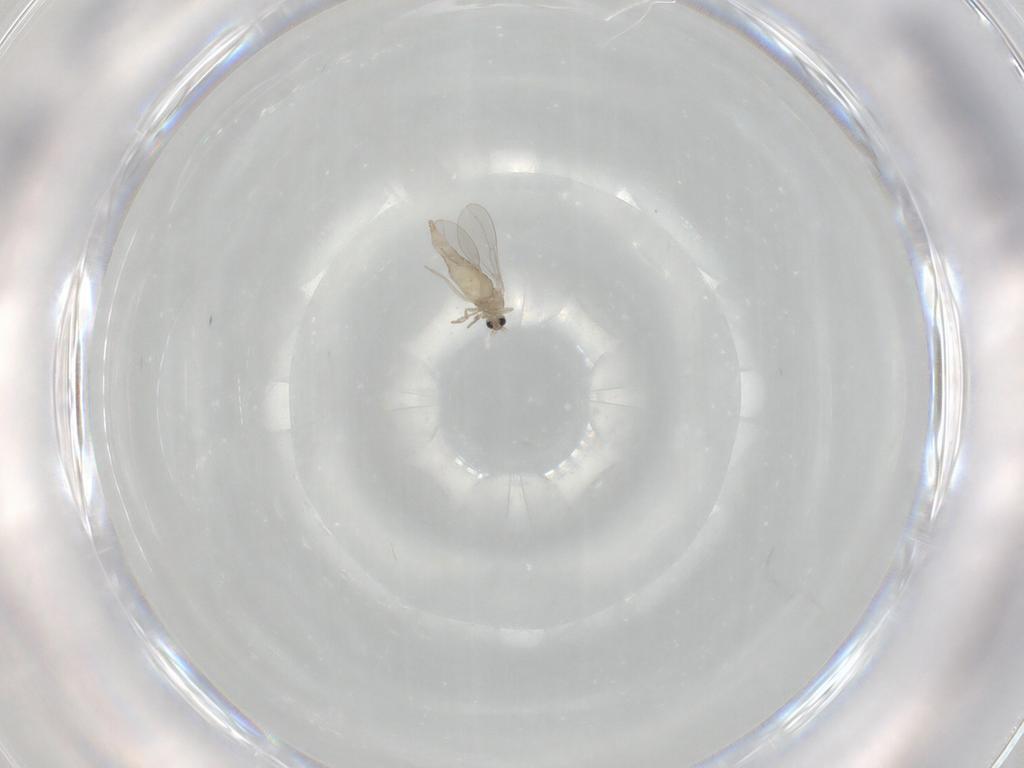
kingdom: Animalia
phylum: Arthropoda
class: Insecta
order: Diptera
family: Cecidomyiidae
